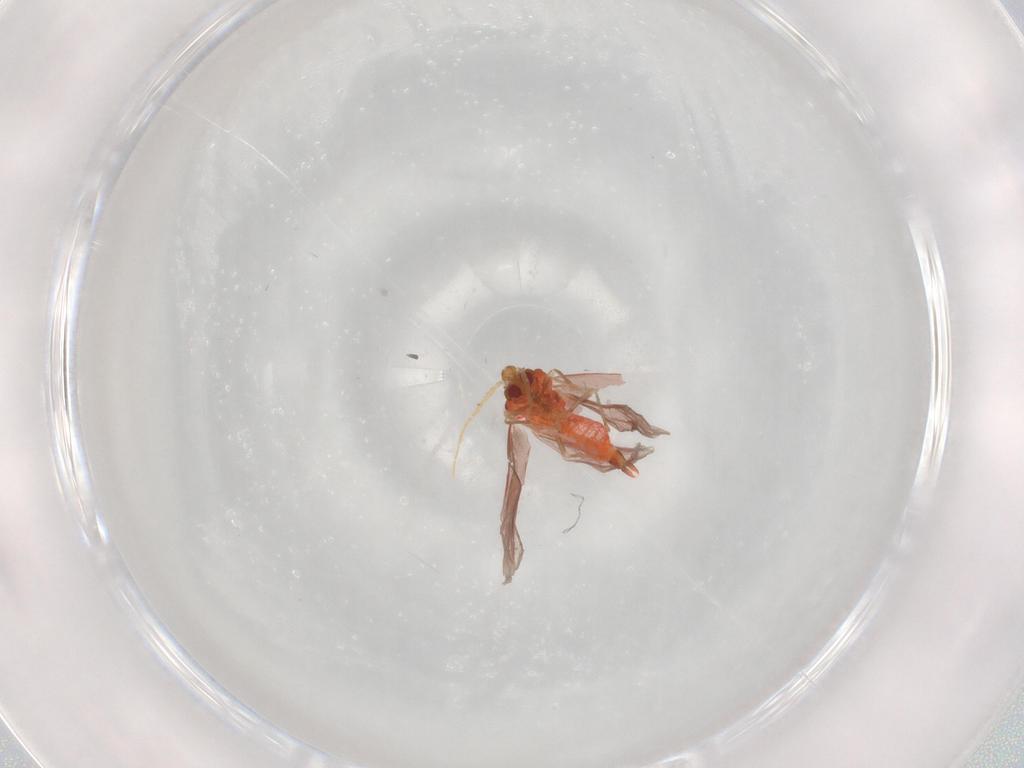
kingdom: Animalia
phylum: Arthropoda
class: Insecta
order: Hemiptera
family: Aleyrodidae
